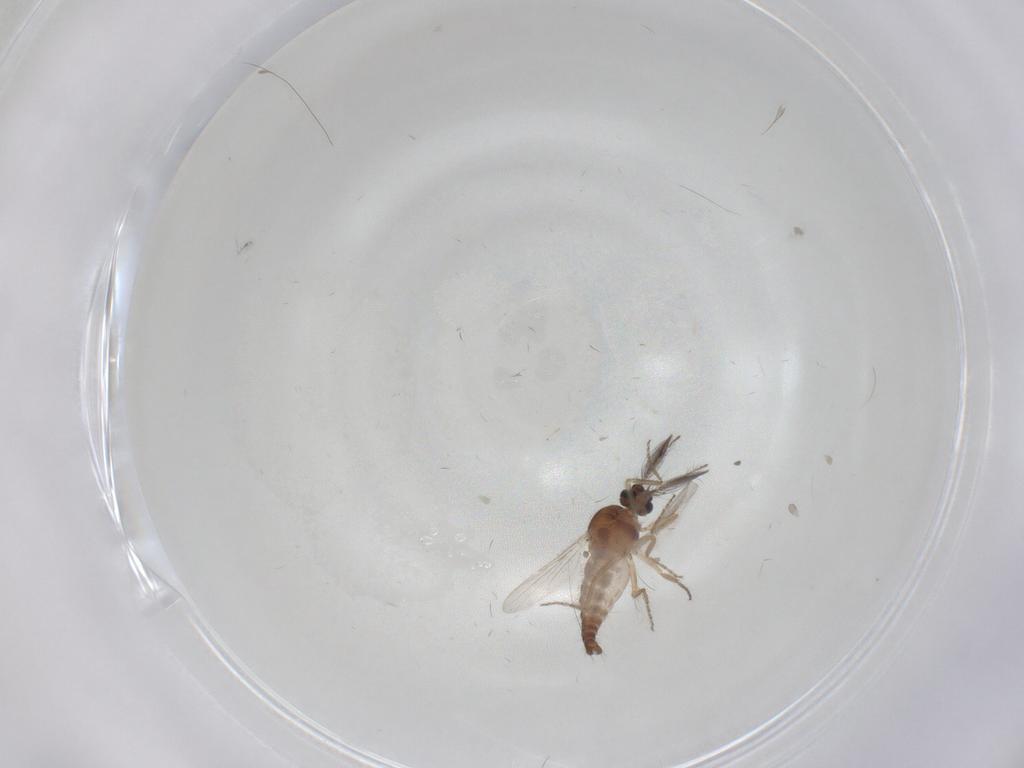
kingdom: Animalia
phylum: Arthropoda
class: Insecta
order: Diptera
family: Ceratopogonidae
